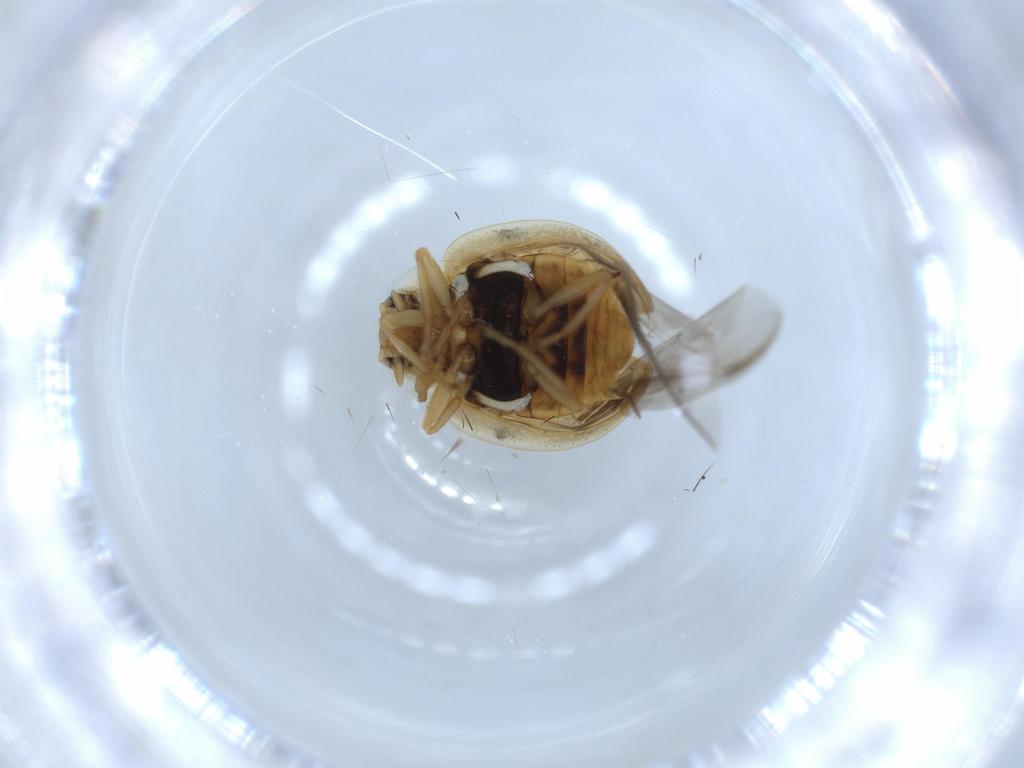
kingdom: Animalia
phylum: Arthropoda
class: Insecta
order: Coleoptera
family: Coccinellidae
